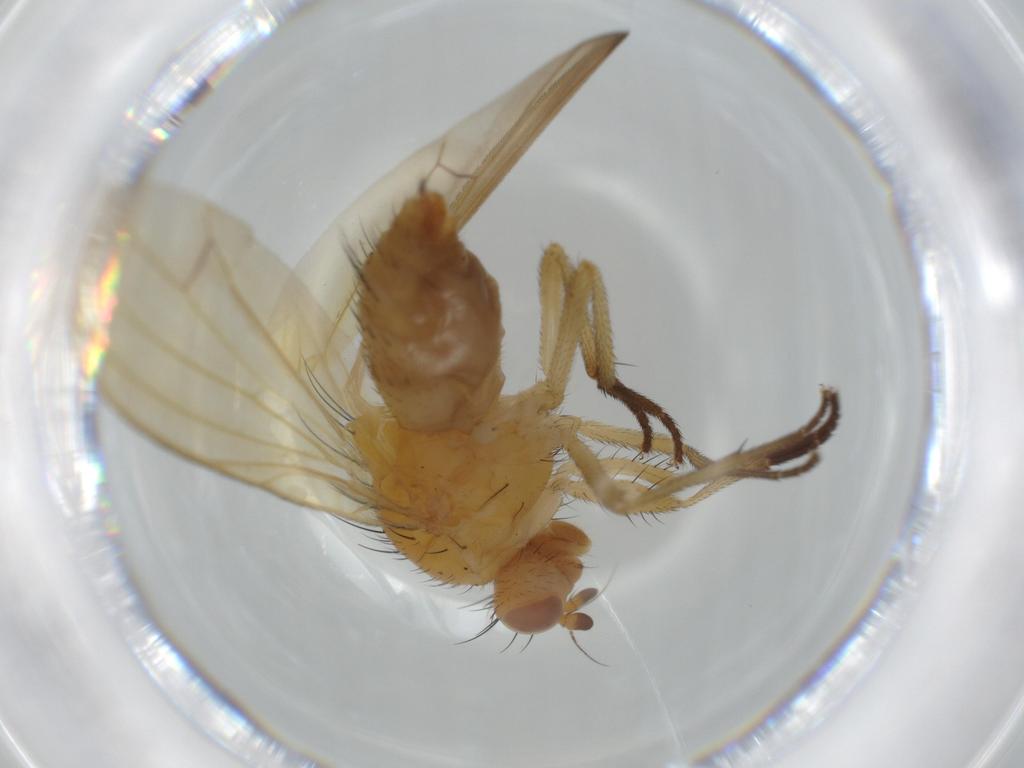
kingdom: Animalia
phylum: Arthropoda
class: Insecta
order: Diptera
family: Lauxaniidae
